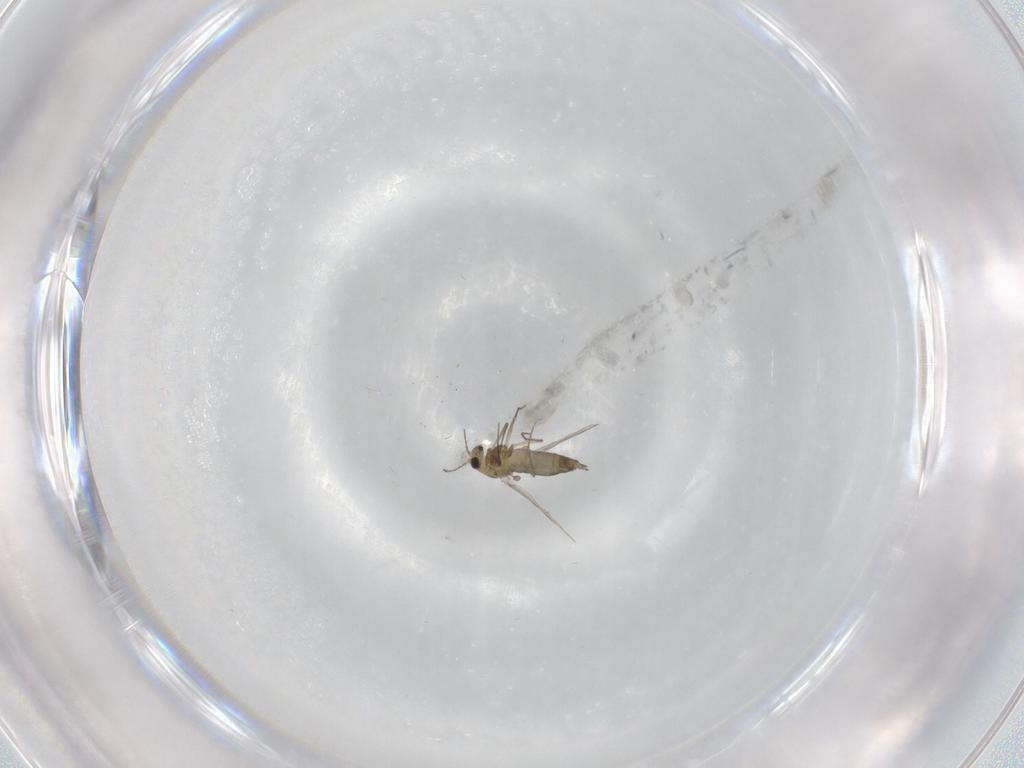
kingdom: Animalia
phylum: Arthropoda
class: Insecta
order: Diptera
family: Chironomidae
